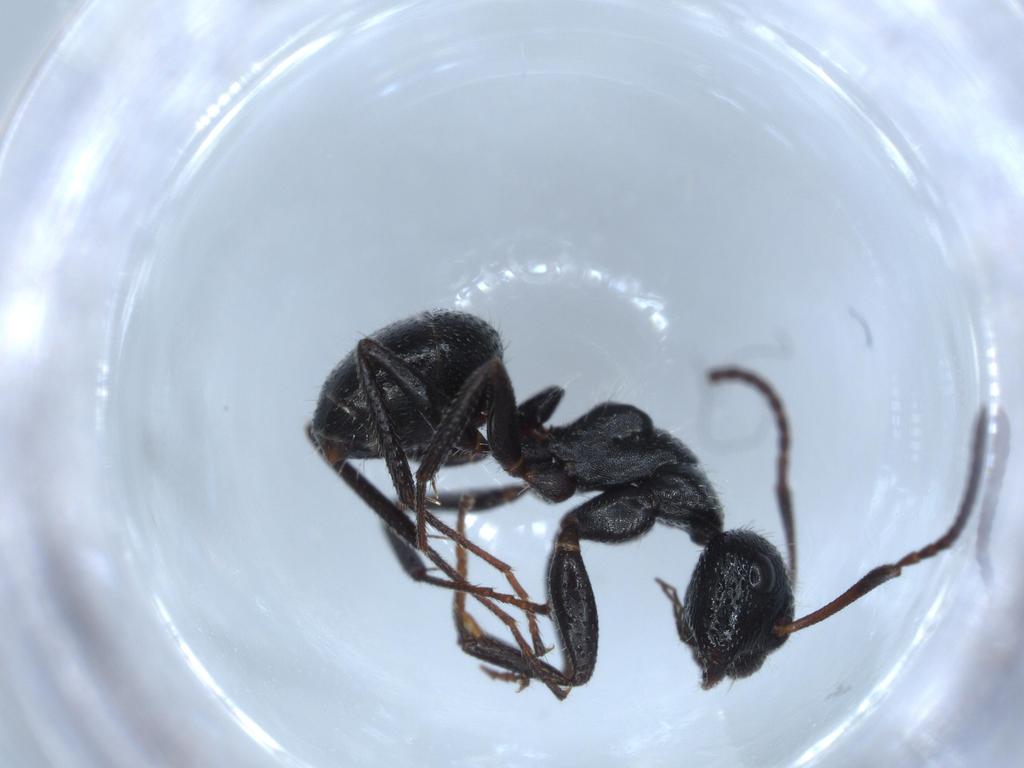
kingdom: Animalia
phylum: Arthropoda
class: Insecta
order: Hymenoptera
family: Formicidae
